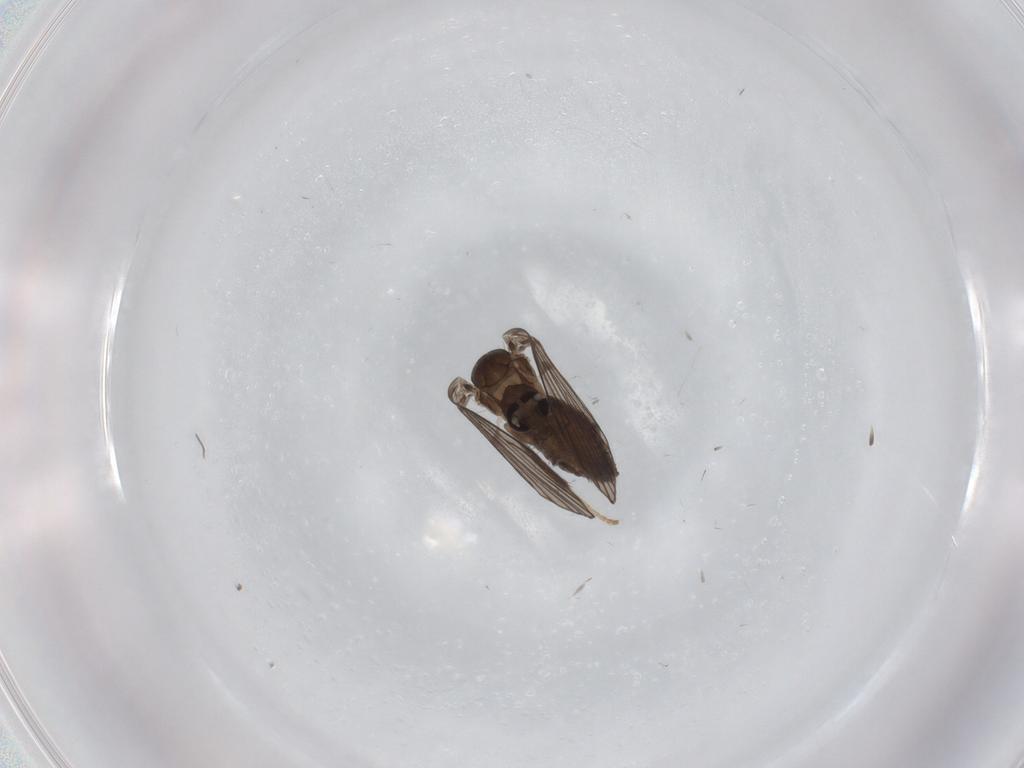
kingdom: Animalia
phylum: Arthropoda
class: Insecta
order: Diptera
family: Psychodidae
